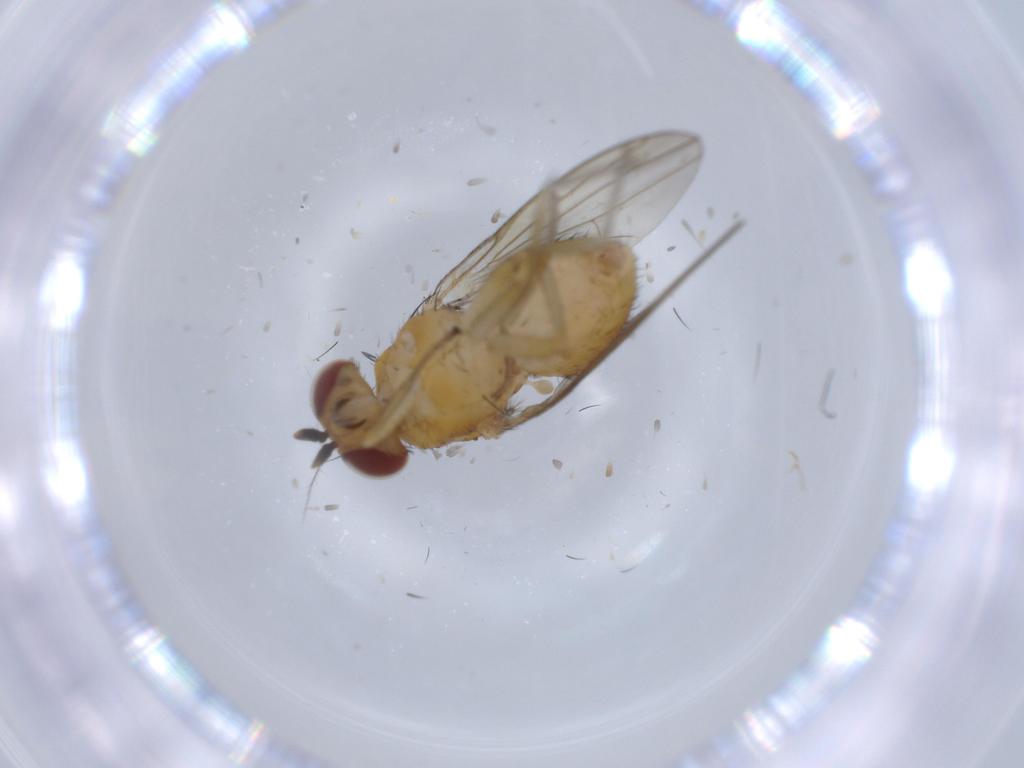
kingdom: Animalia
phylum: Arthropoda
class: Insecta
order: Diptera
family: Lauxaniidae
